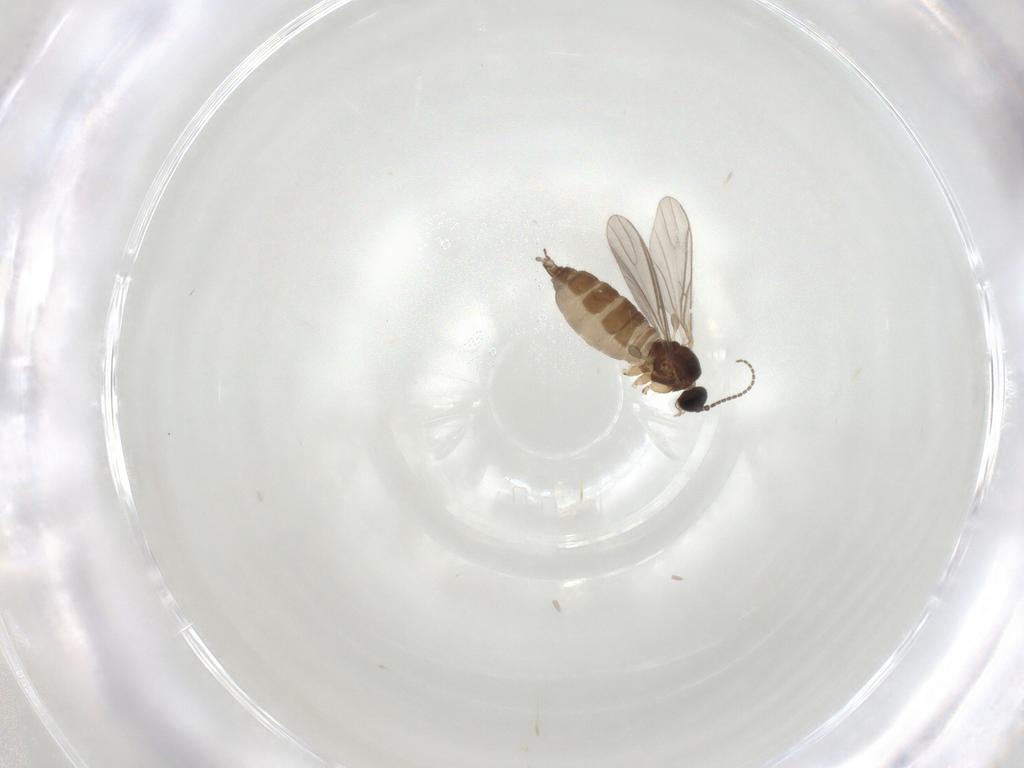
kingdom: Animalia
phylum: Arthropoda
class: Insecta
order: Diptera
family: Sciaridae
